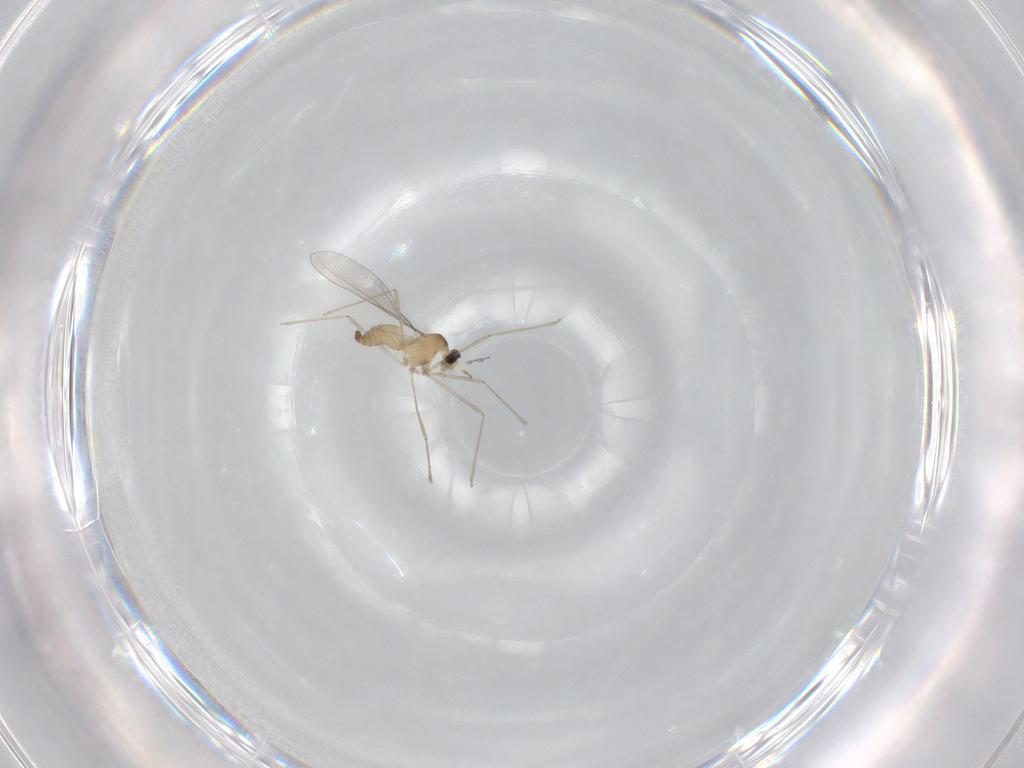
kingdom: Animalia
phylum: Arthropoda
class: Insecta
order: Diptera
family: Cecidomyiidae
